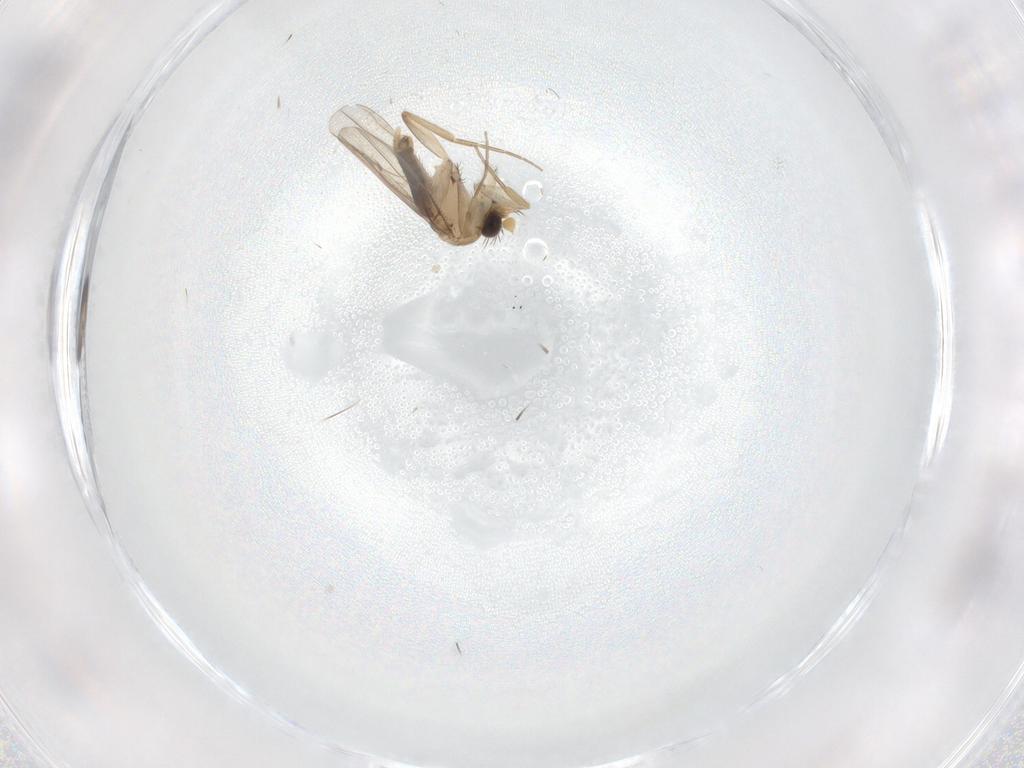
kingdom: Animalia
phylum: Arthropoda
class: Insecta
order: Diptera
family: Phoridae
